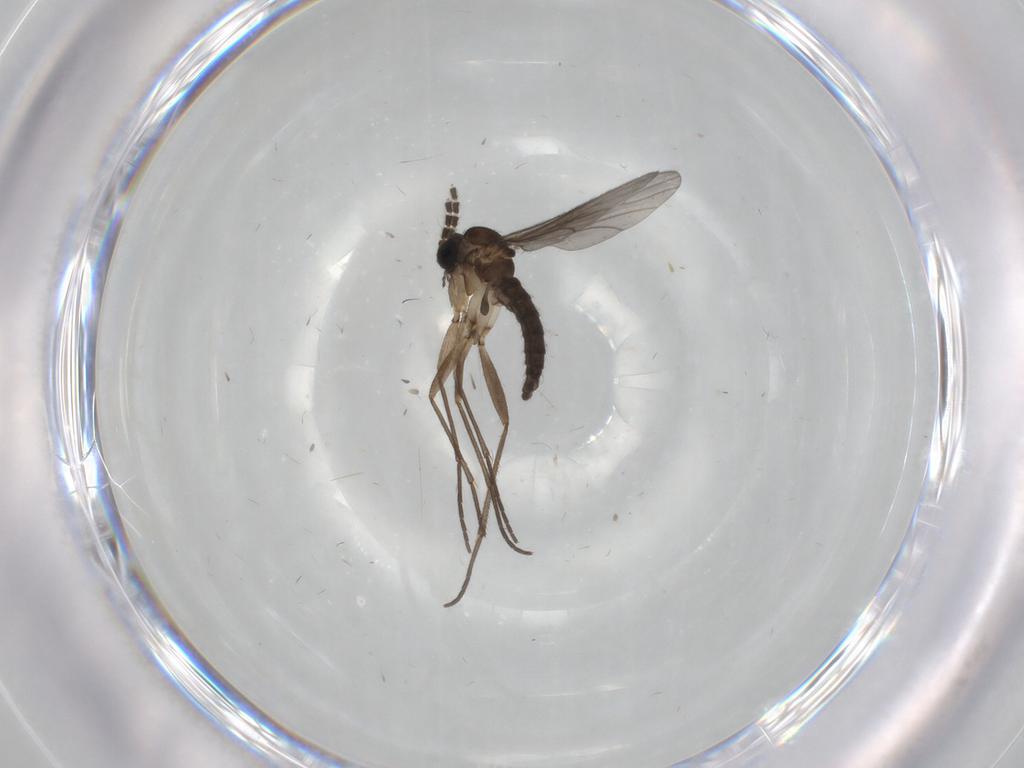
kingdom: Animalia
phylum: Arthropoda
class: Insecta
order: Diptera
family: Sciaridae
